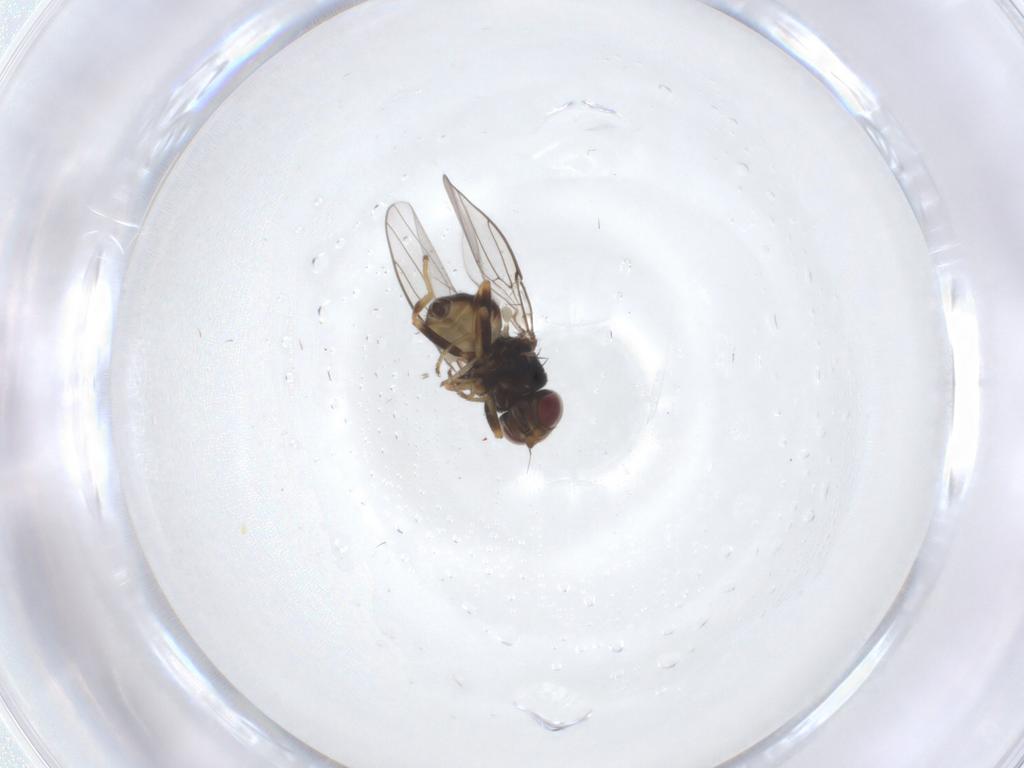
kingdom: Animalia
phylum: Arthropoda
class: Insecta
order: Diptera
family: Chloropidae
